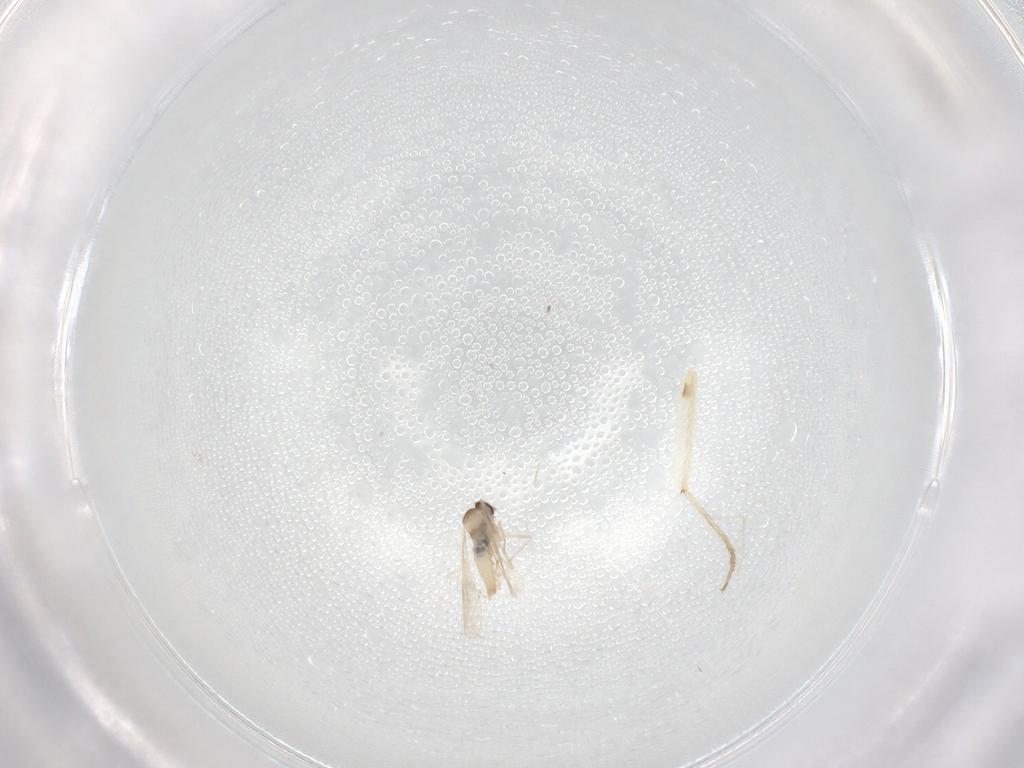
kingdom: Animalia
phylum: Arthropoda
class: Insecta
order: Diptera
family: Chironomidae
